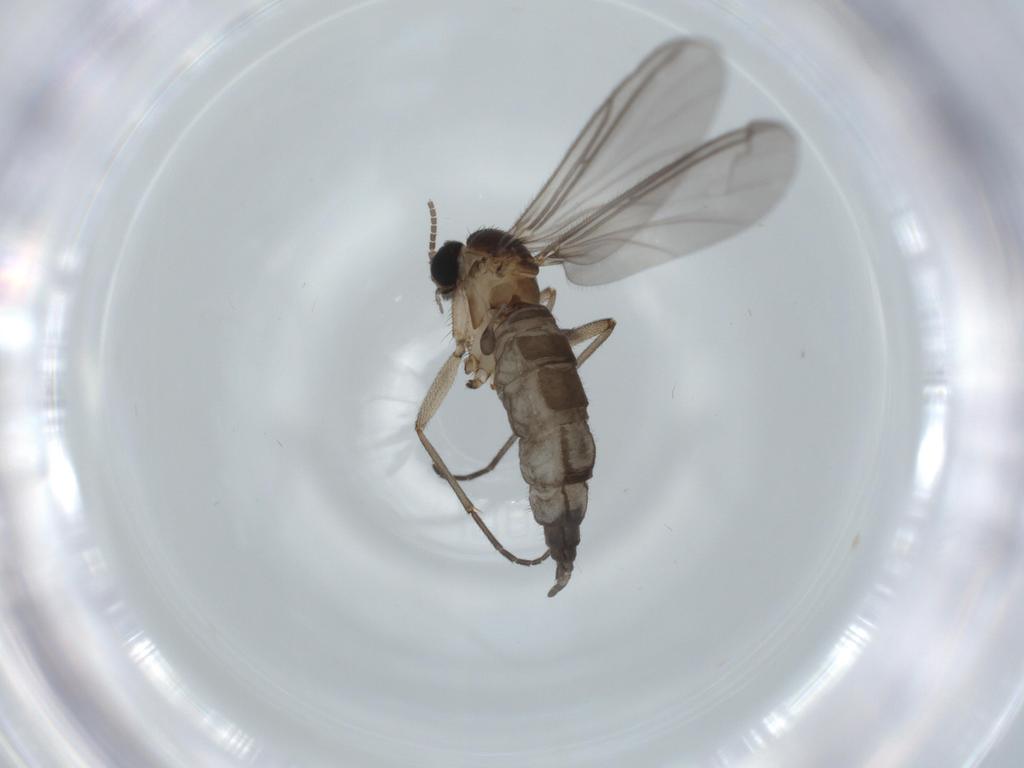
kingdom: Animalia
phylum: Arthropoda
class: Insecta
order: Diptera
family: Sciaridae
